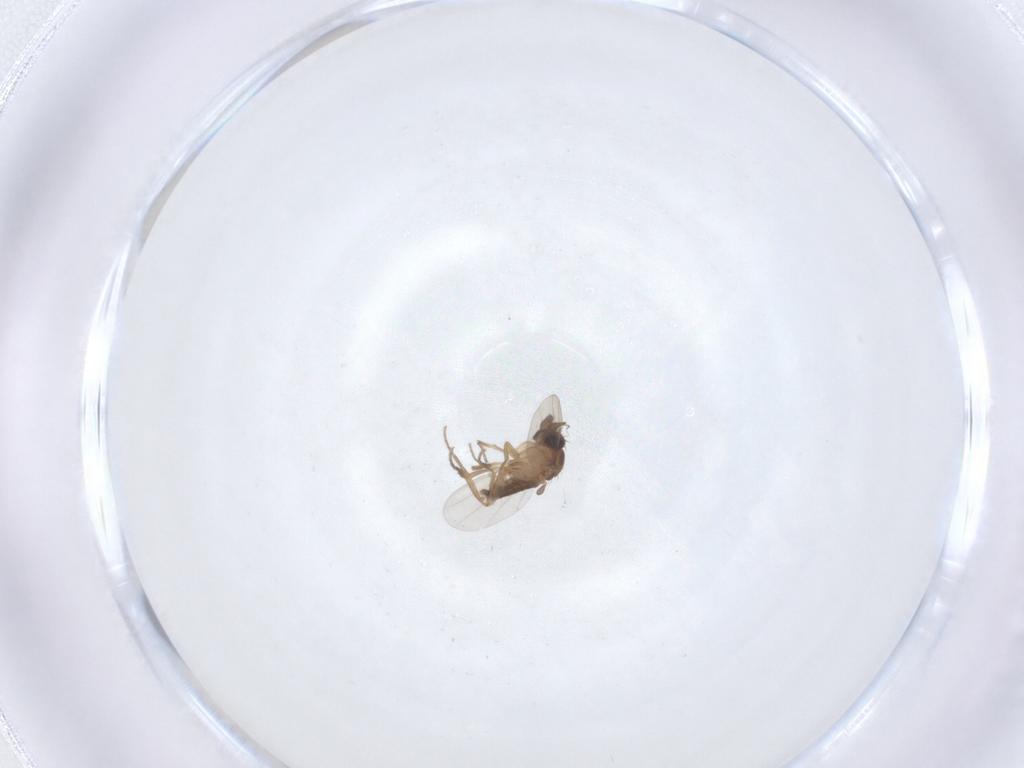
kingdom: Animalia
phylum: Arthropoda
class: Insecta
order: Diptera
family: Phoridae
